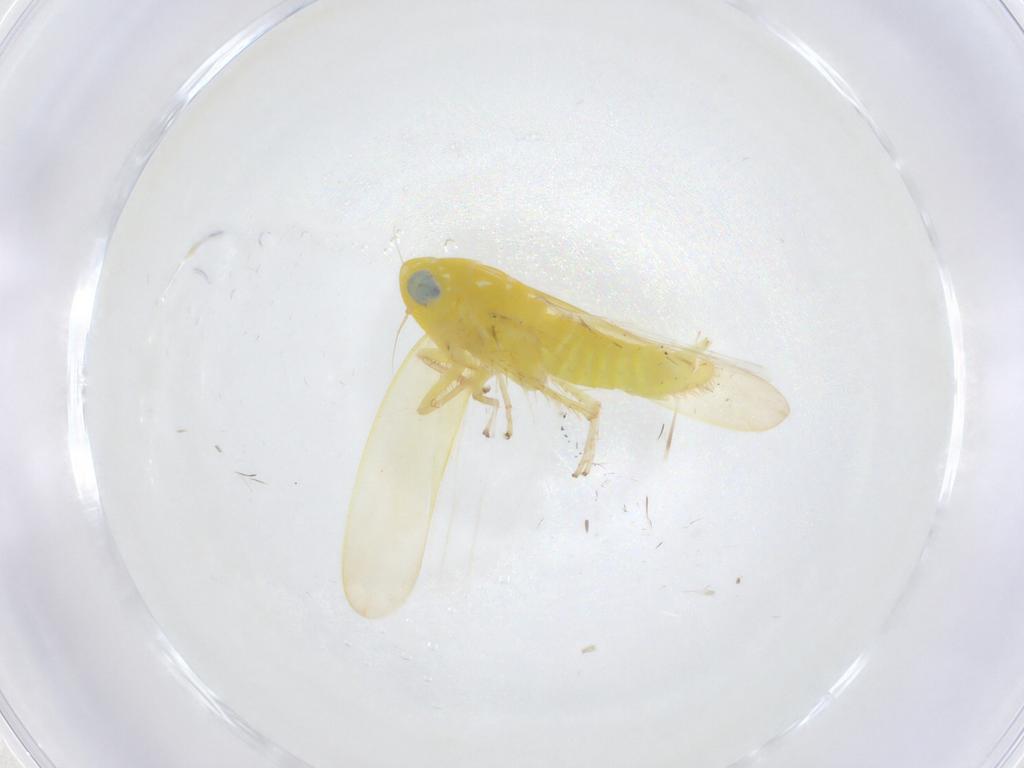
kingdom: Animalia
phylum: Arthropoda
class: Insecta
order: Hemiptera
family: Cicadellidae
